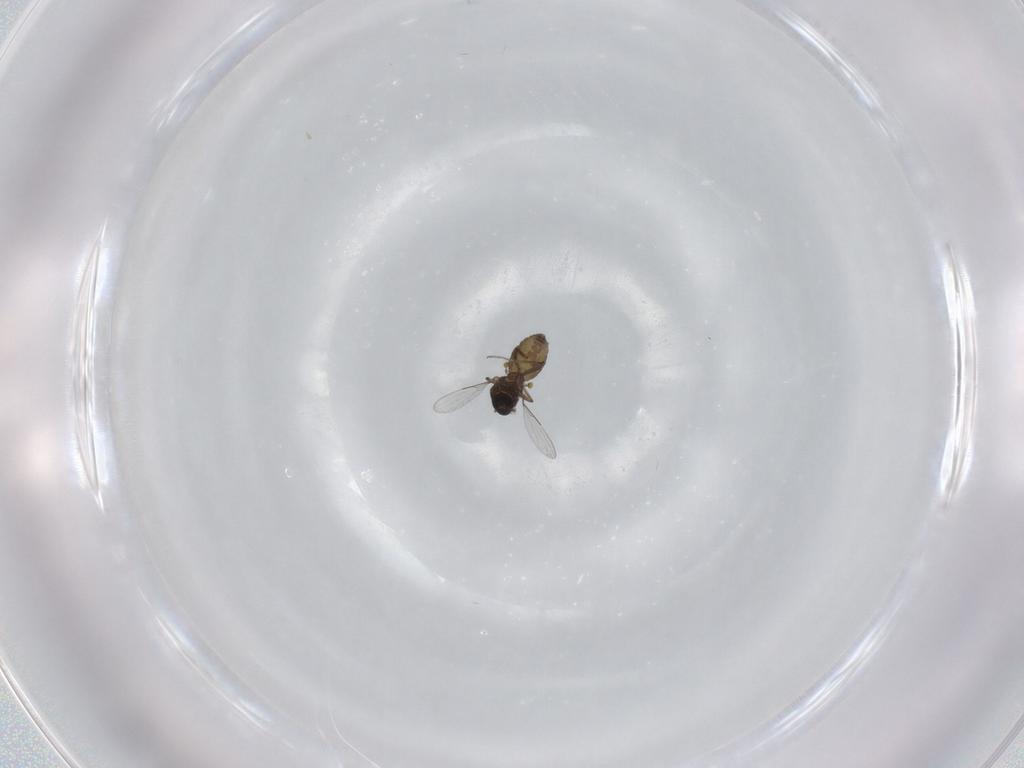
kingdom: Animalia
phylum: Arthropoda
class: Insecta
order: Diptera
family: Ceratopogonidae
